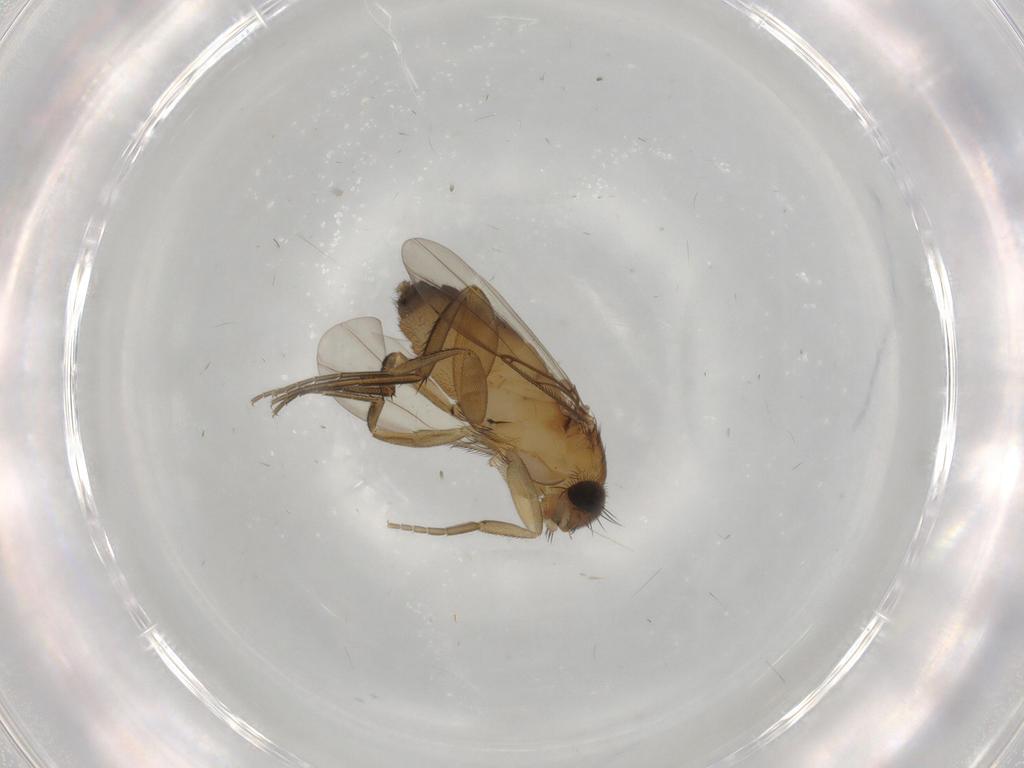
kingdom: Animalia
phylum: Arthropoda
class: Insecta
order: Diptera
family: Phoridae
